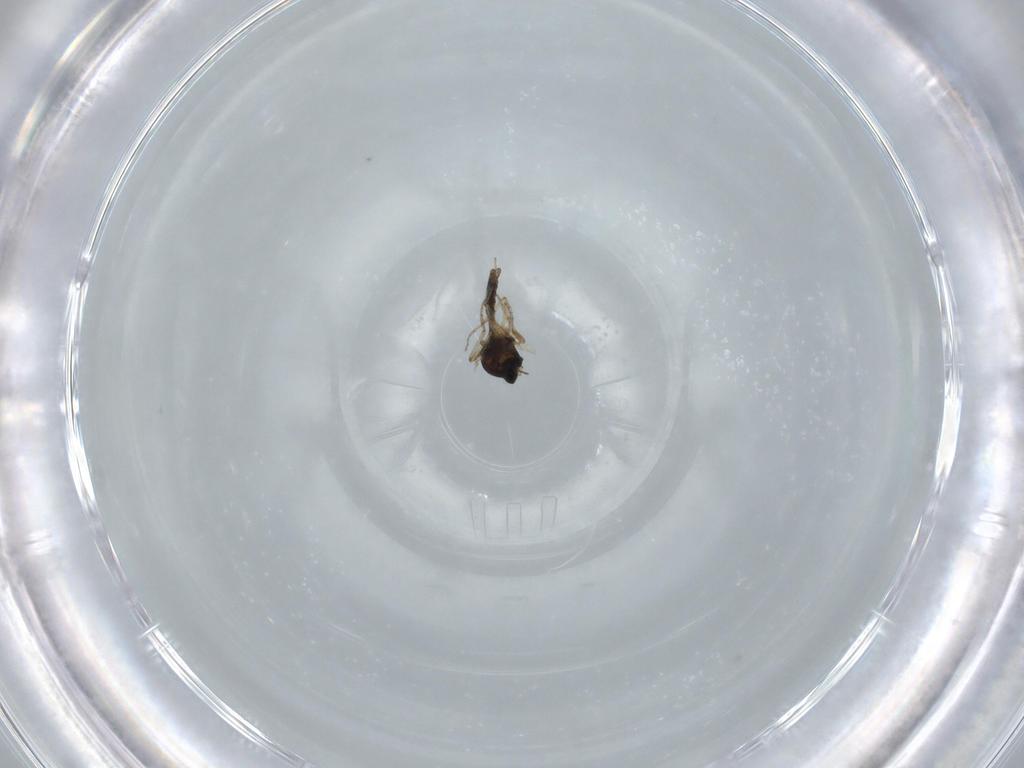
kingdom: Animalia
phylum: Arthropoda
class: Insecta
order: Diptera
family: Ceratopogonidae
